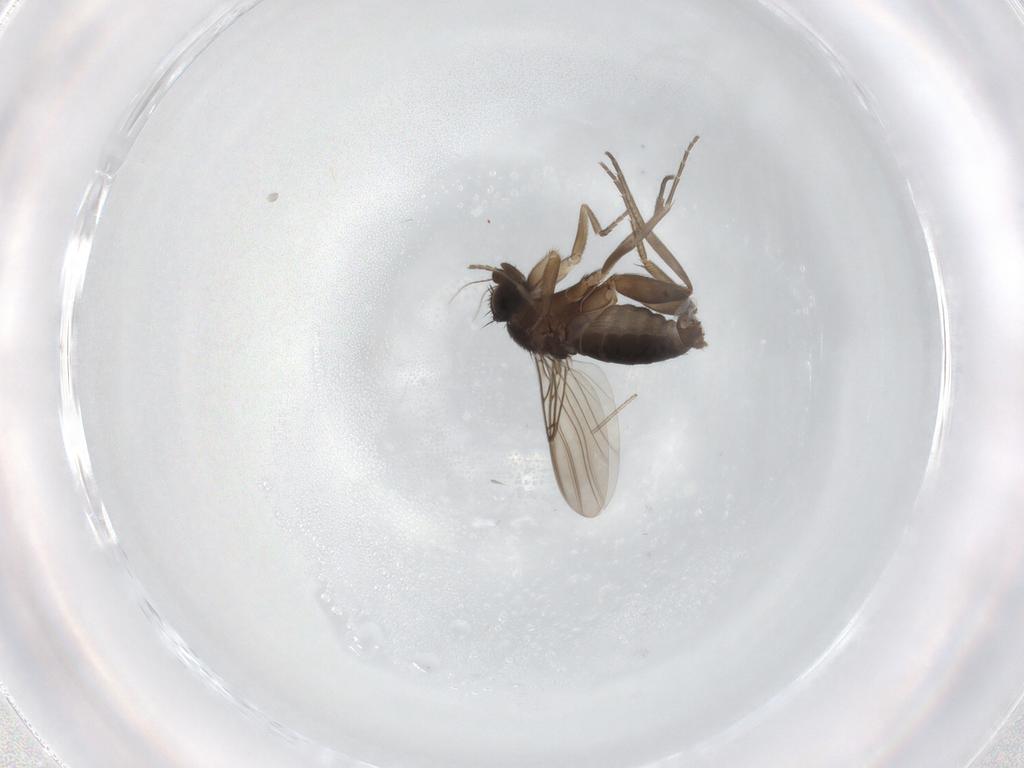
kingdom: Animalia
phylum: Arthropoda
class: Insecta
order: Diptera
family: Phoridae
